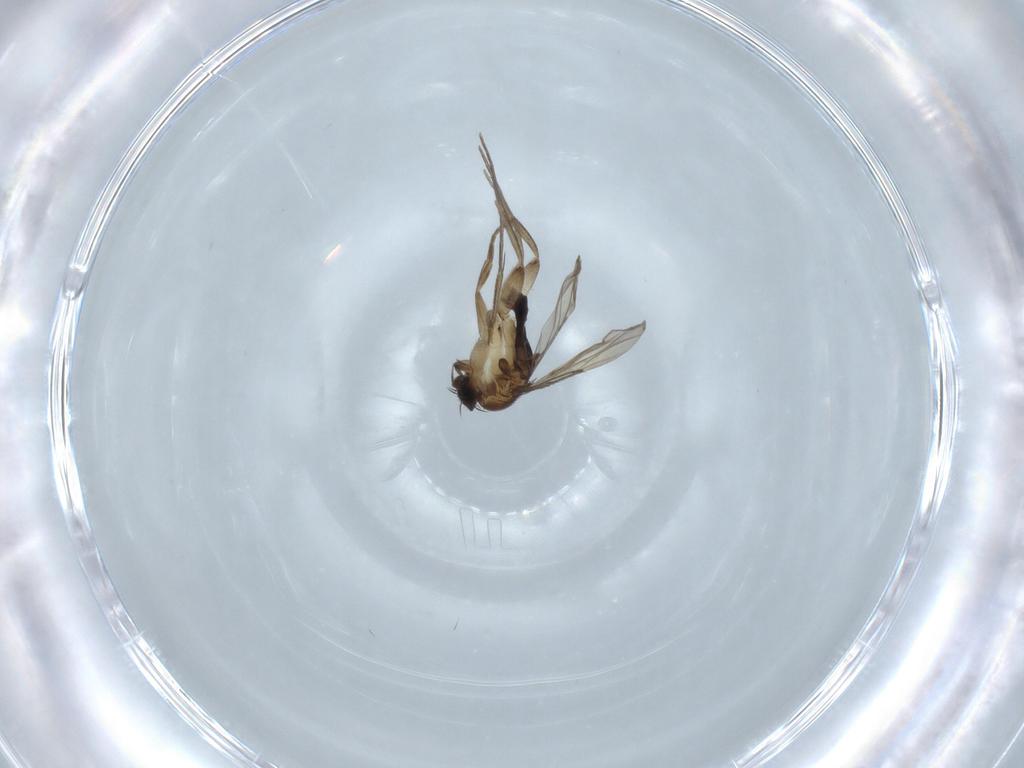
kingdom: Animalia
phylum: Arthropoda
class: Insecta
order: Diptera
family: Phoridae
